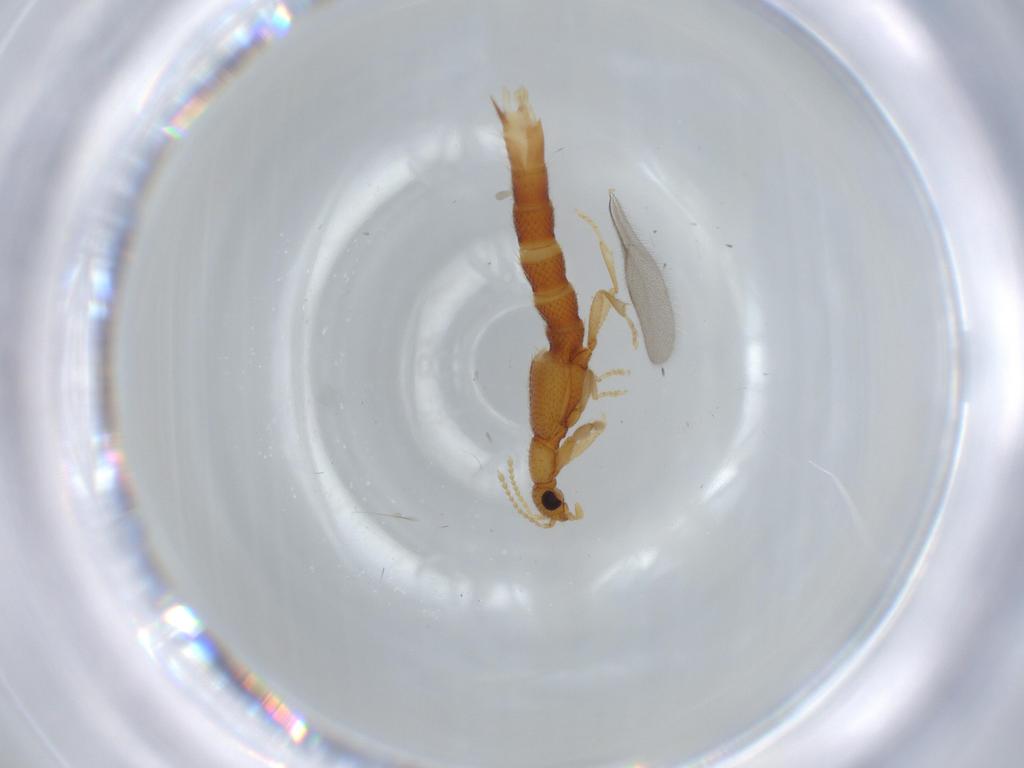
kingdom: Animalia
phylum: Arthropoda
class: Insecta
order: Coleoptera
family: Staphylinidae
